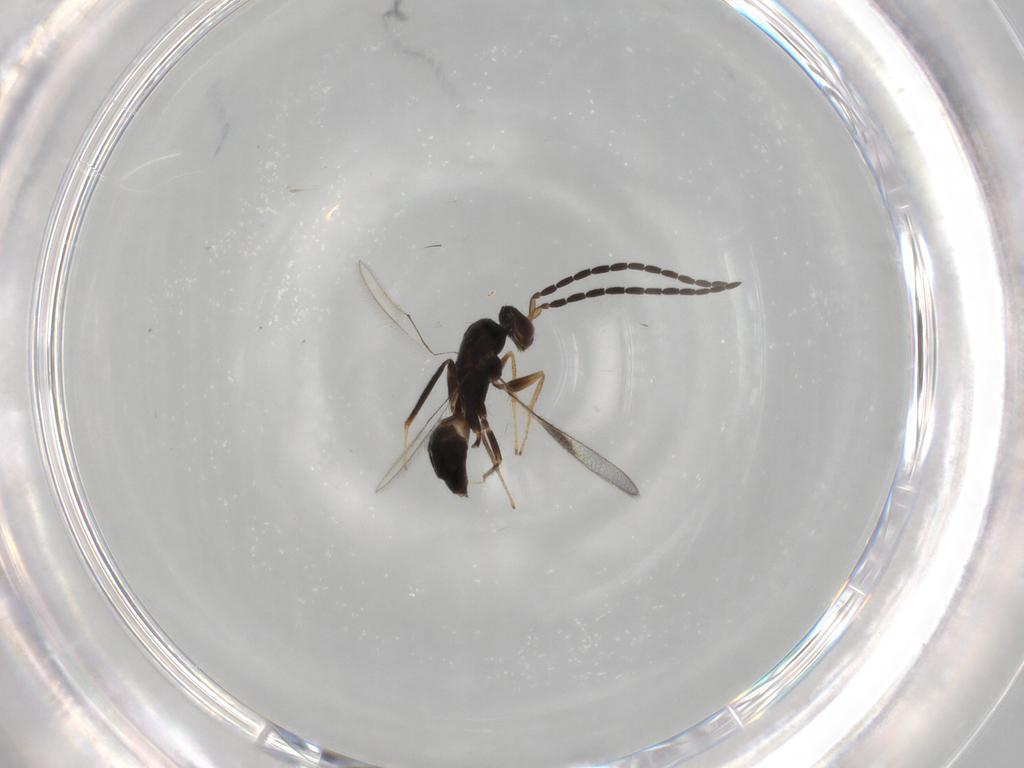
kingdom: Animalia
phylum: Arthropoda
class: Insecta
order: Hymenoptera
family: Mymaridae
